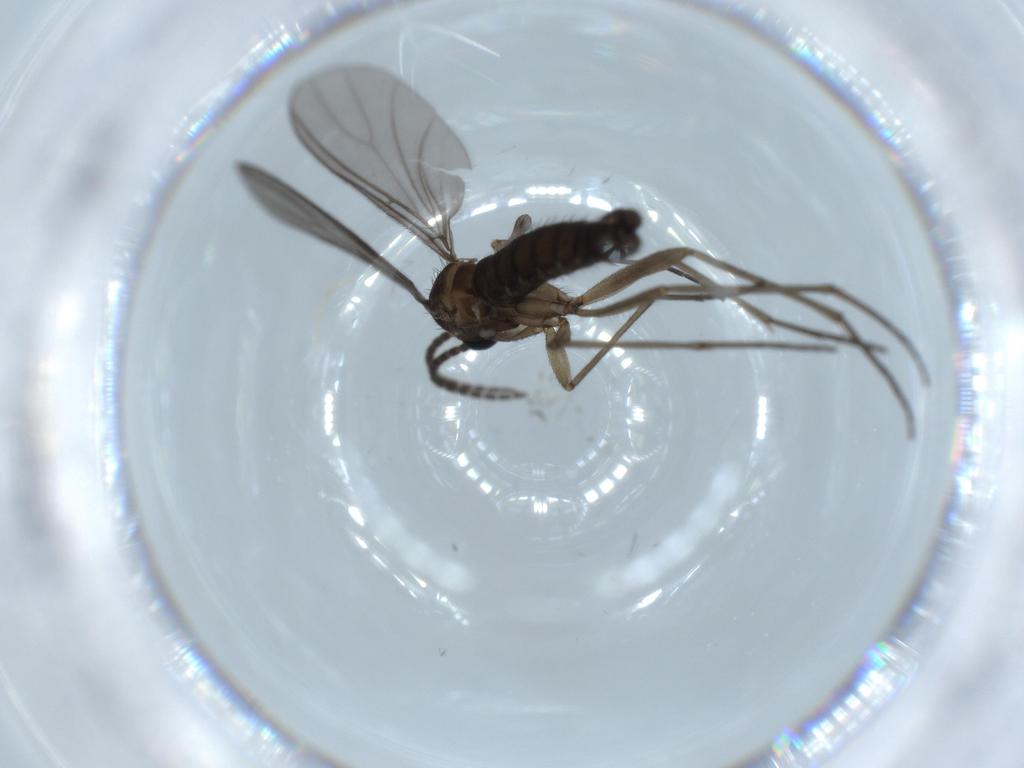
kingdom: Animalia
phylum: Arthropoda
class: Insecta
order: Diptera
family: Sciaridae
